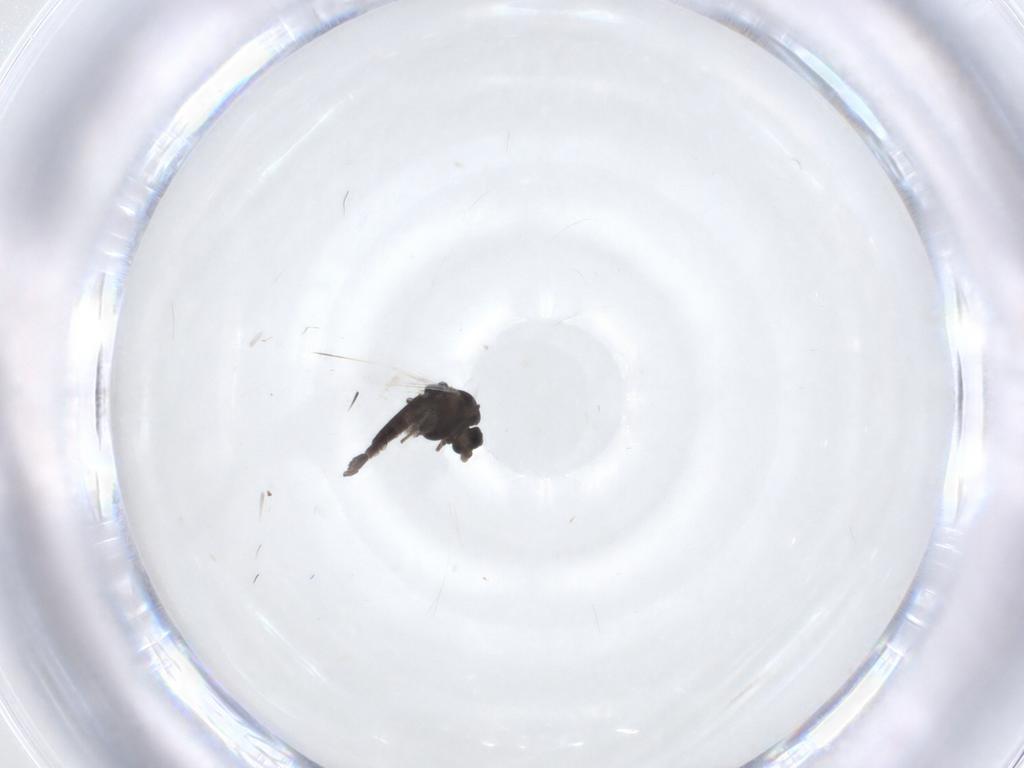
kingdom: Animalia
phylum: Arthropoda
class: Insecta
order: Diptera
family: Chironomidae
